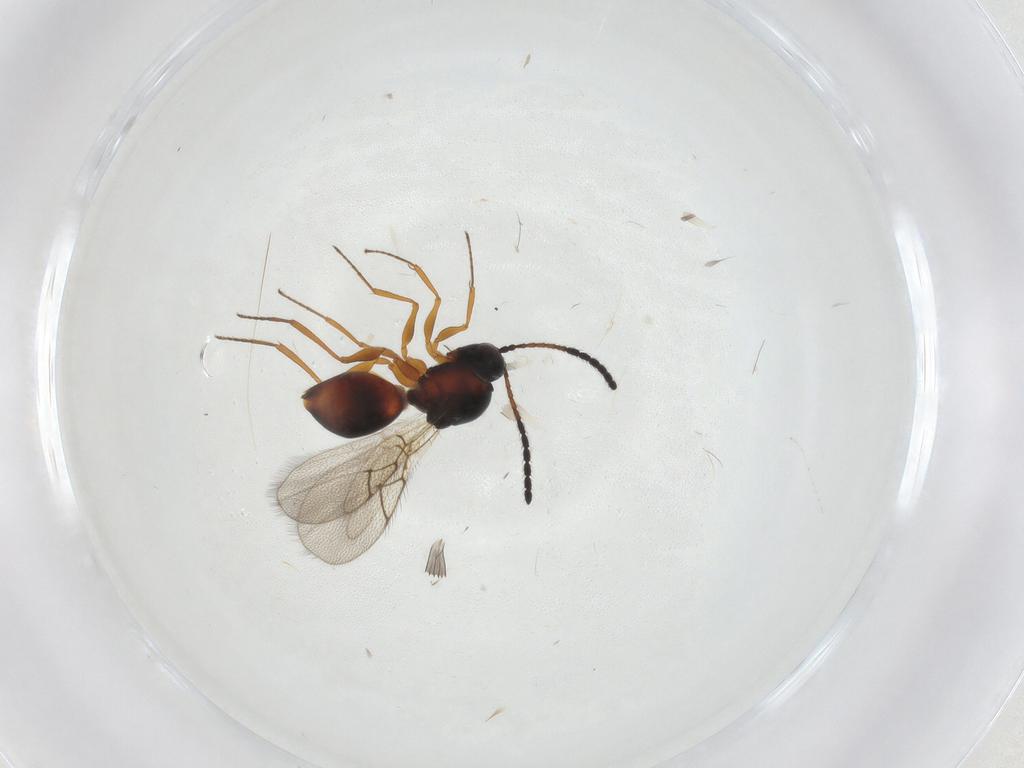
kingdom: Animalia
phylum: Arthropoda
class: Insecta
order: Hymenoptera
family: Figitidae
